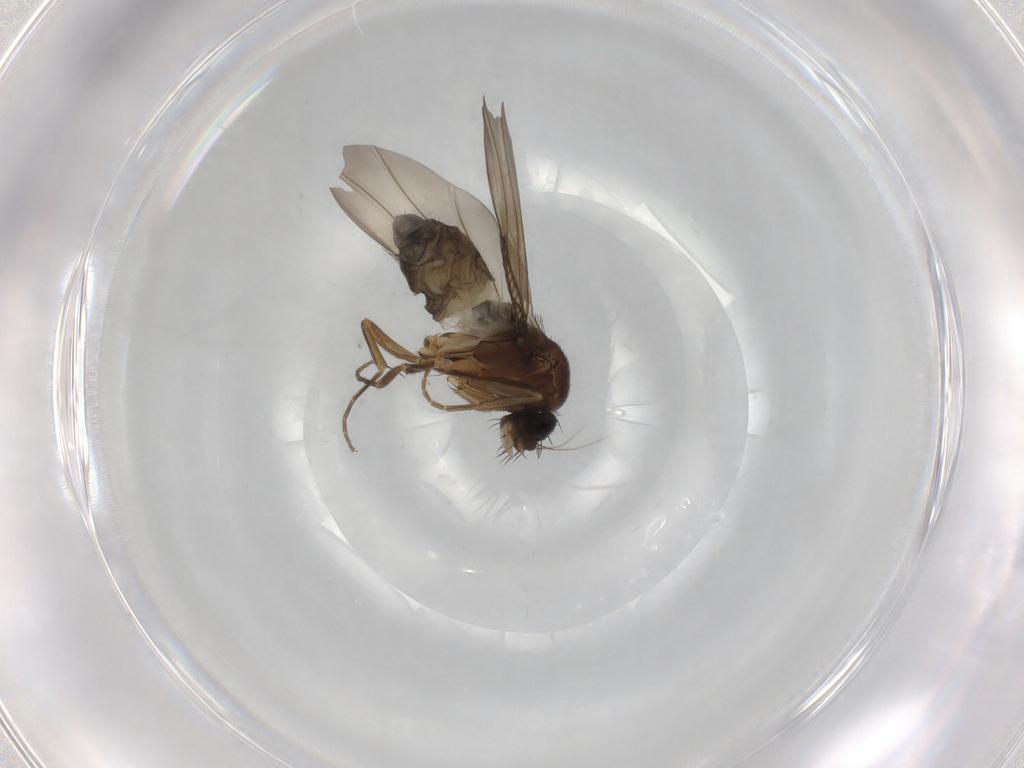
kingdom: Animalia
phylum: Arthropoda
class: Insecta
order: Diptera
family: Phoridae
